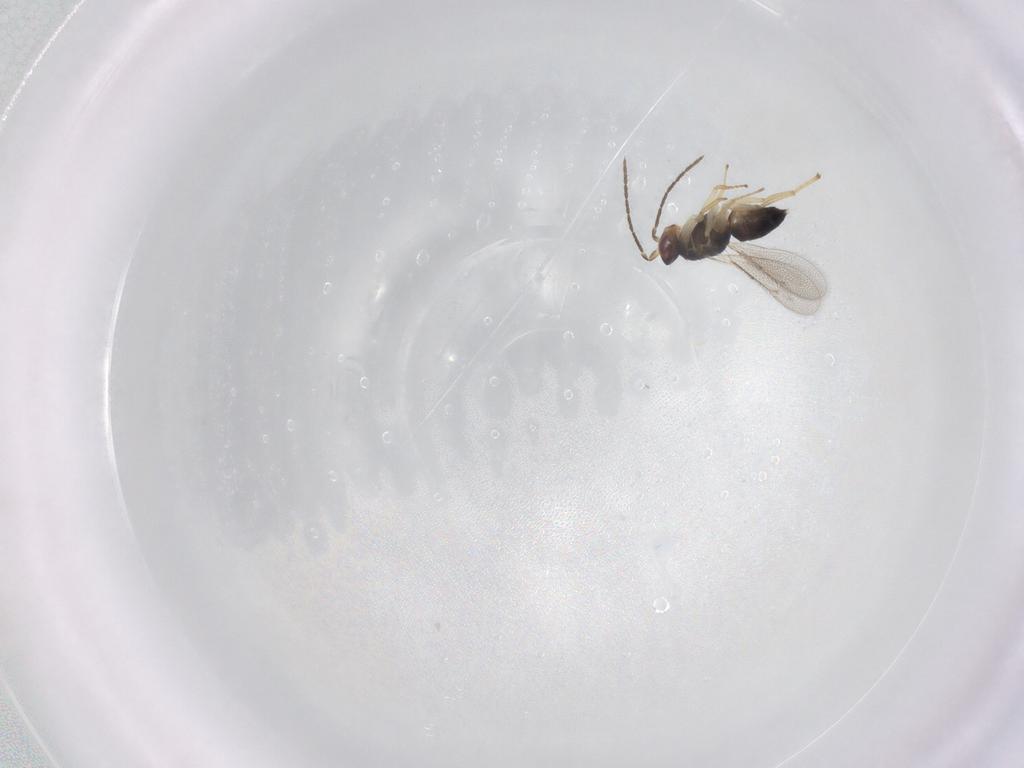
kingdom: Animalia
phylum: Arthropoda
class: Insecta
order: Hymenoptera
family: Eulophidae
